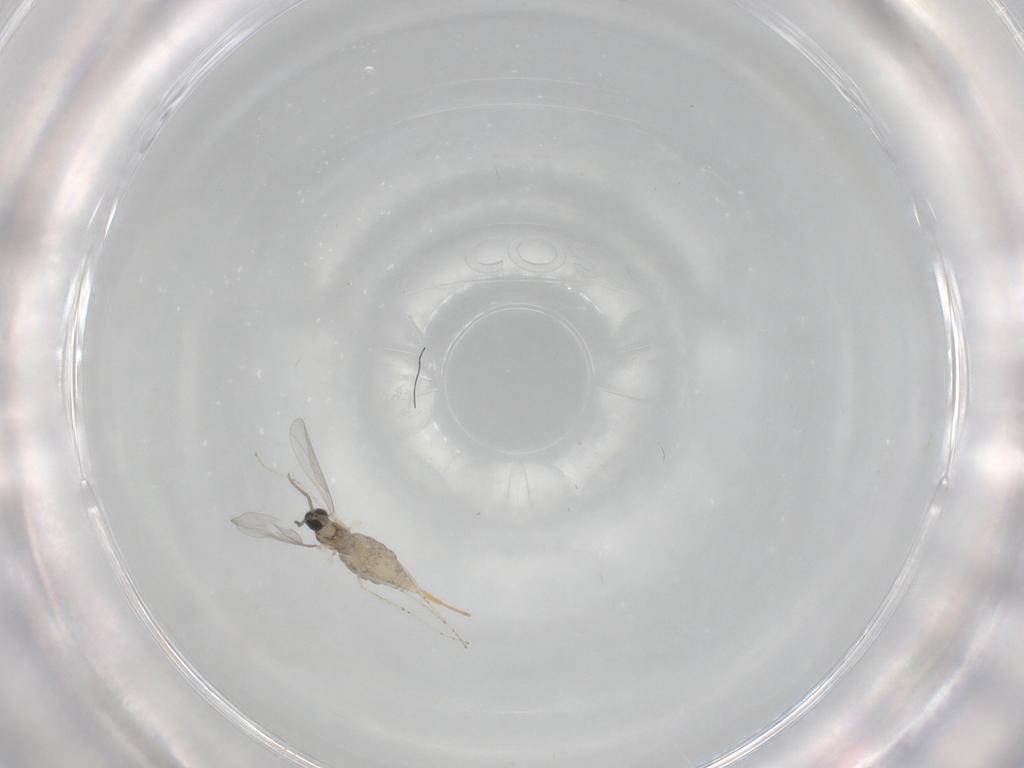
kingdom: Animalia
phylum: Arthropoda
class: Insecta
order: Diptera
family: Cecidomyiidae
